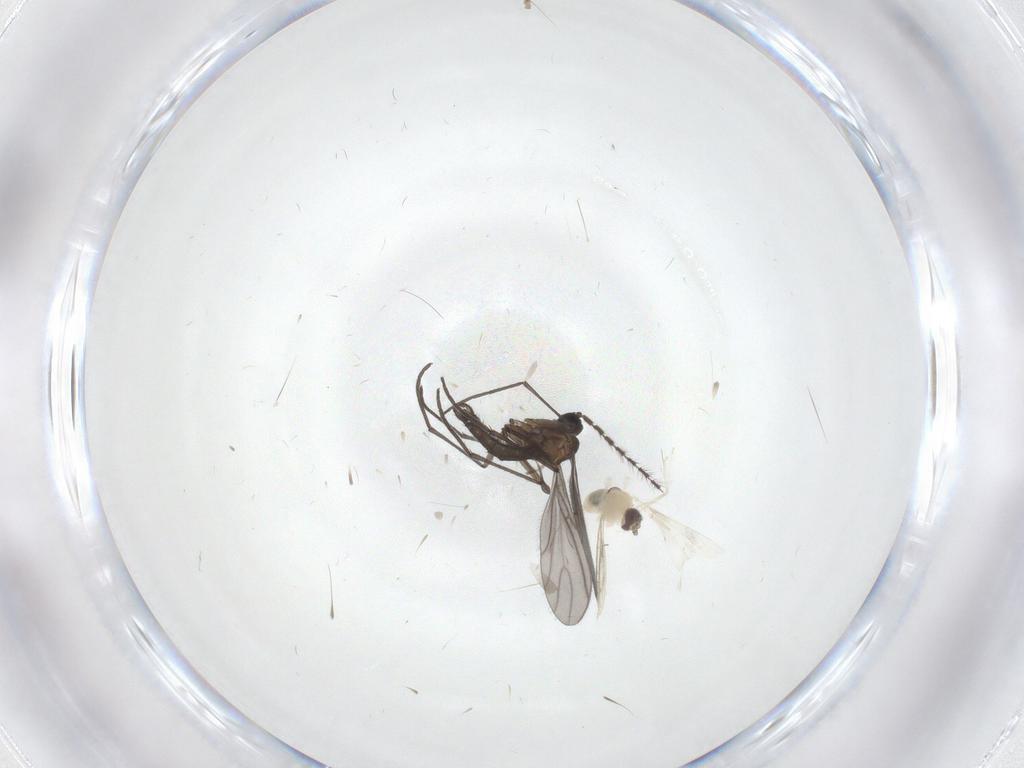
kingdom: Animalia
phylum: Arthropoda
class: Insecta
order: Diptera
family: Cecidomyiidae
